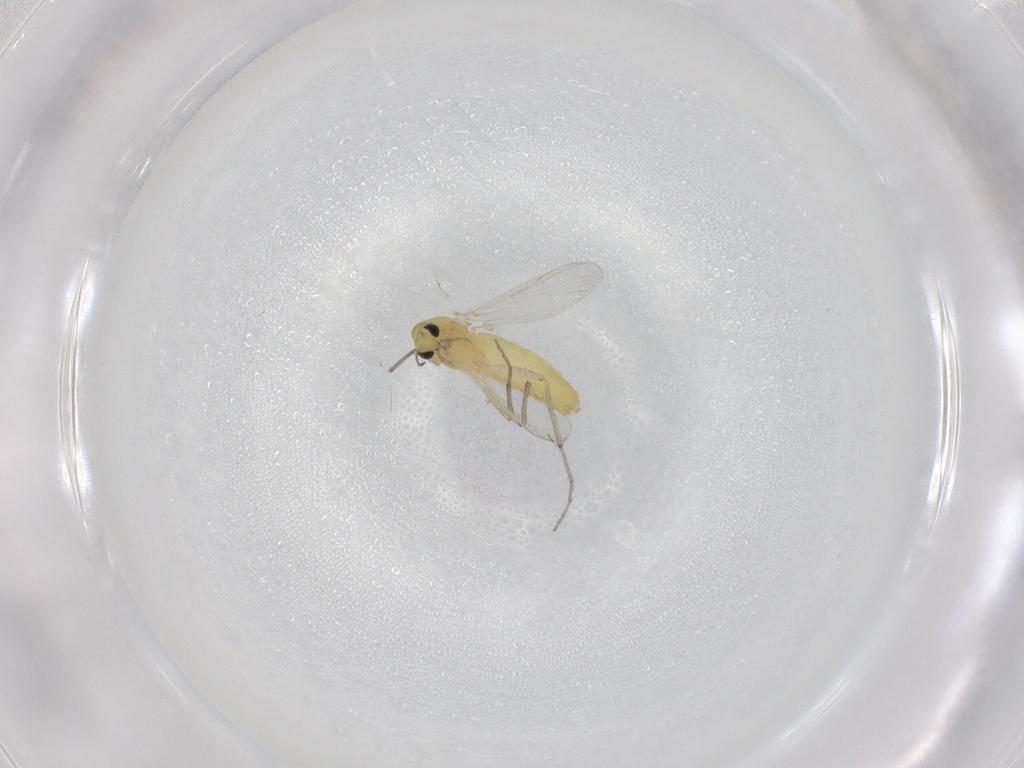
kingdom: Animalia
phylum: Arthropoda
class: Insecta
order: Diptera
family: Chironomidae
